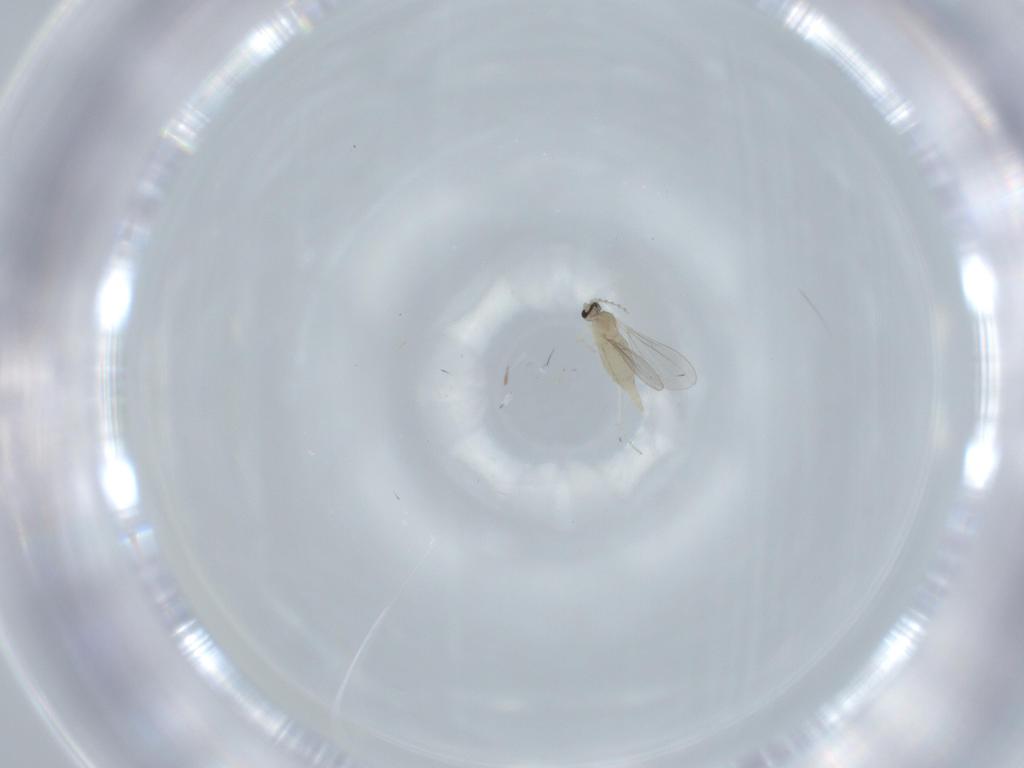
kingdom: Animalia
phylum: Arthropoda
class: Insecta
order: Diptera
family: Cecidomyiidae
